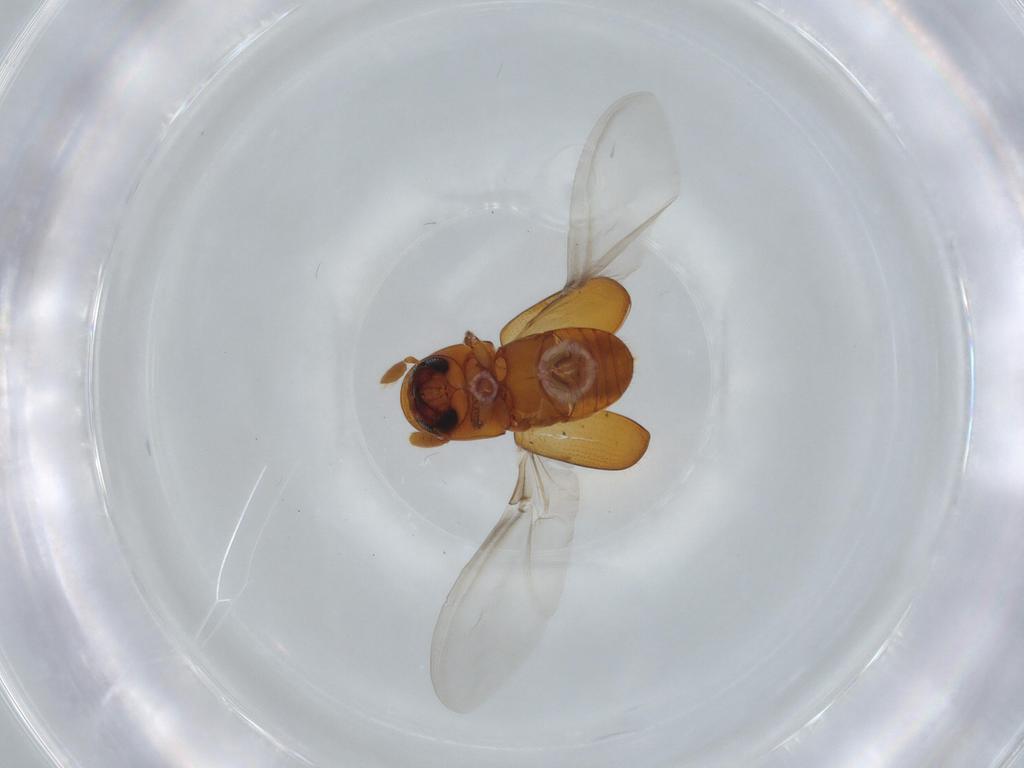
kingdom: Animalia
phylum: Arthropoda
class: Insecta
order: Coleoptera
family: Curculionidae
